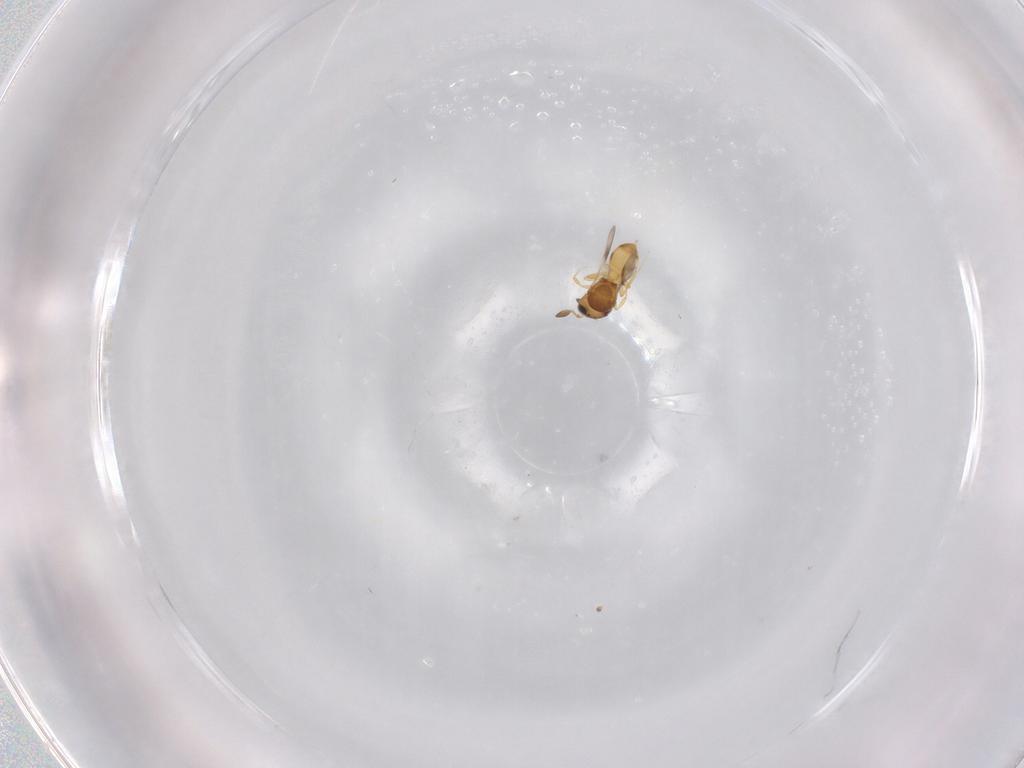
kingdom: Animalia
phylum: Arthropoda
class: Insecta
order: Hymenoptera
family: Scelionidae
